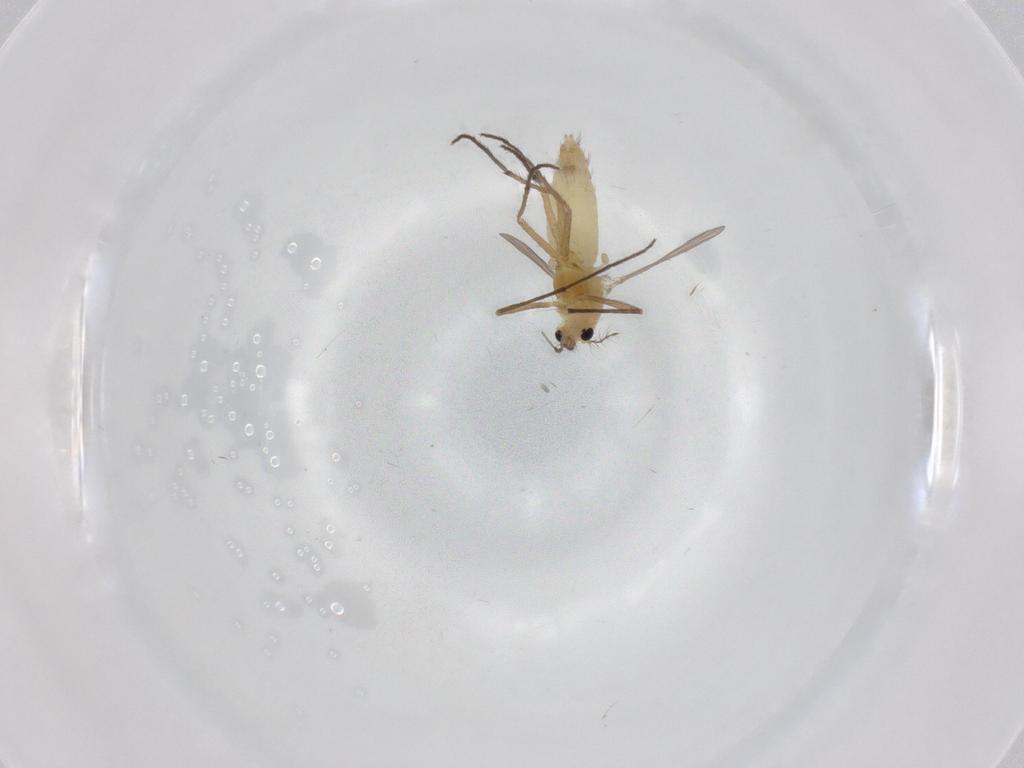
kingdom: Animalia
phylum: Arthropoda
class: Insecta
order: Diptera
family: Chironomidae
